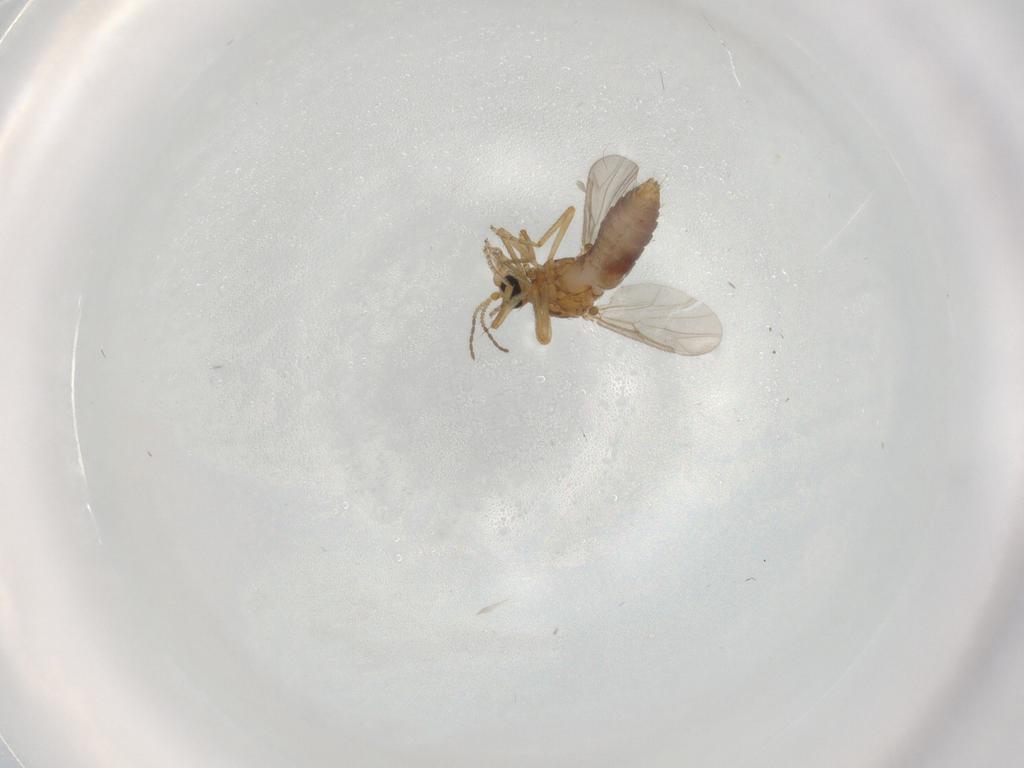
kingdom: Animalia
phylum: Arthropoda
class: Insecta
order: Diptera
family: Ceratopogonidae
